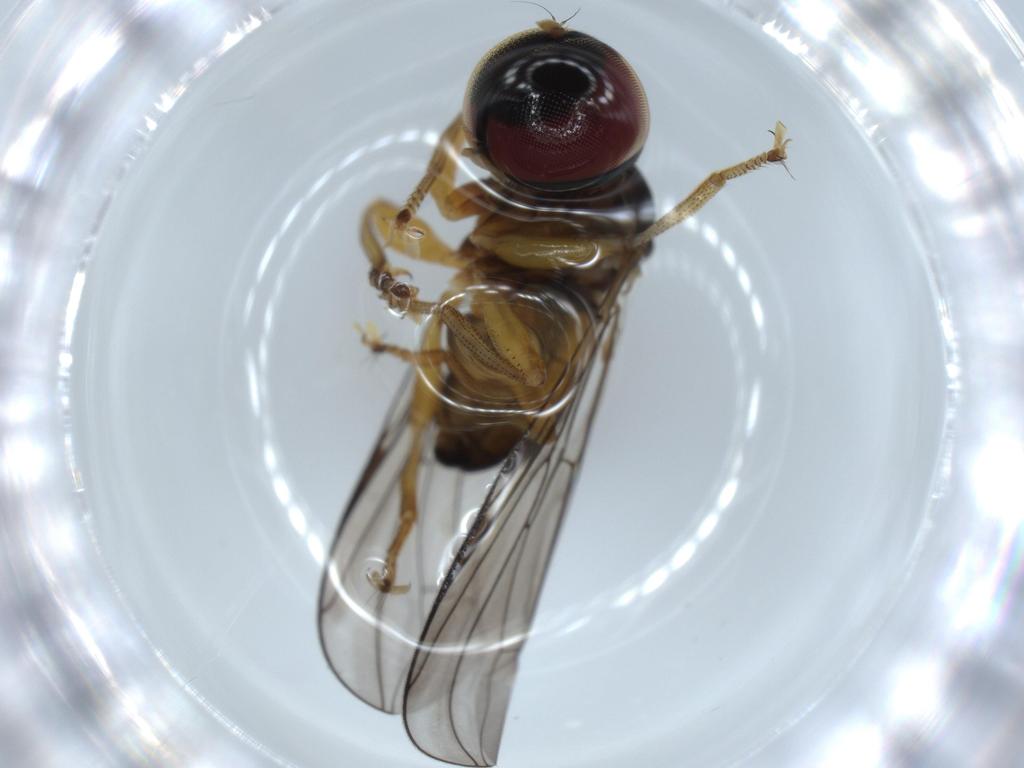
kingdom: Animalia
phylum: Arthropoda
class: Insecta
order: Diptera
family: Pipunculidae
